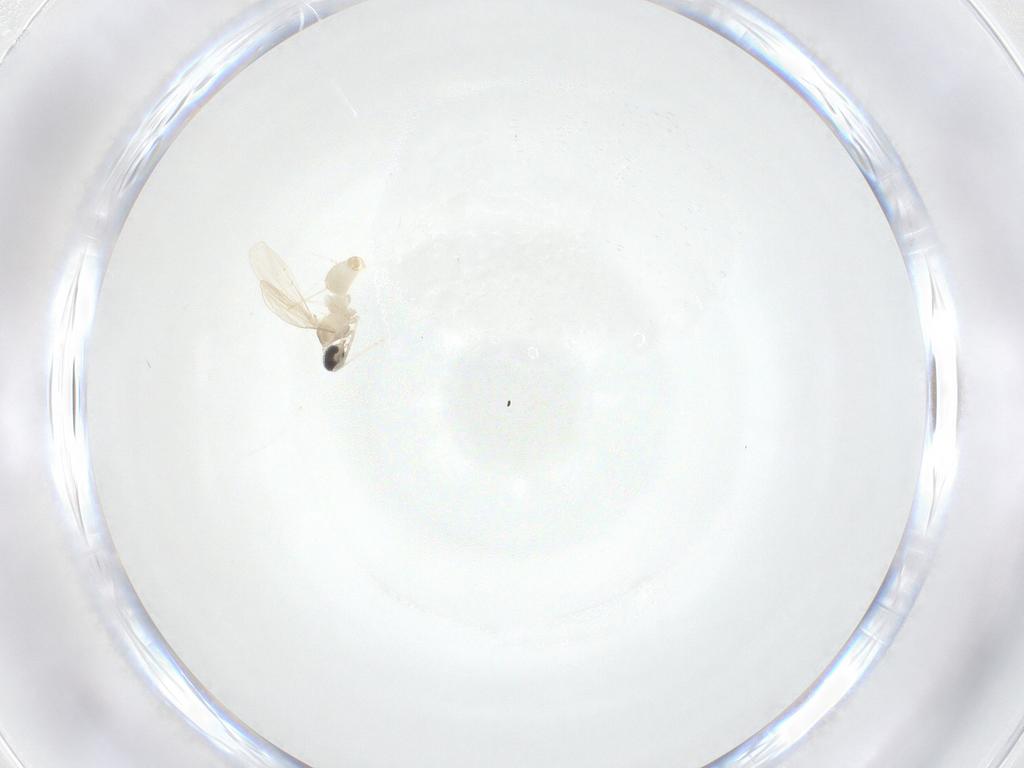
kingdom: Animalia
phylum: Arthropoda
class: Insecta
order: Diptera
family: Cecidomyiidae
